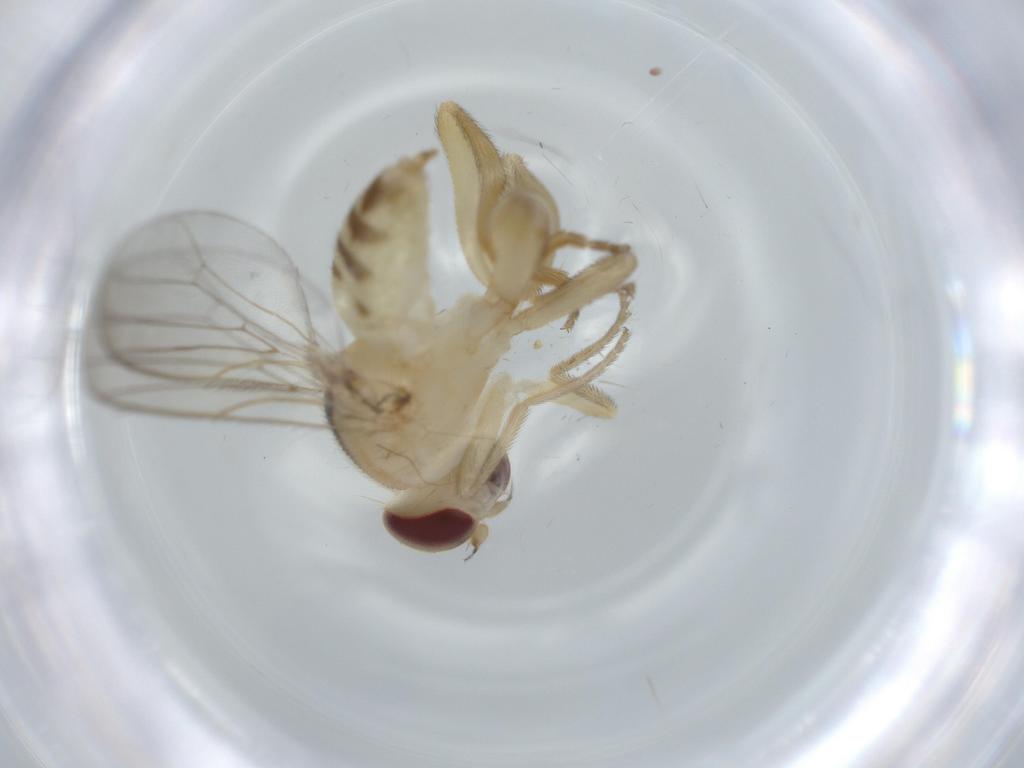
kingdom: Animalia
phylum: Arthropoda
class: Insecta
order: Diptera
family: Chloropidae
